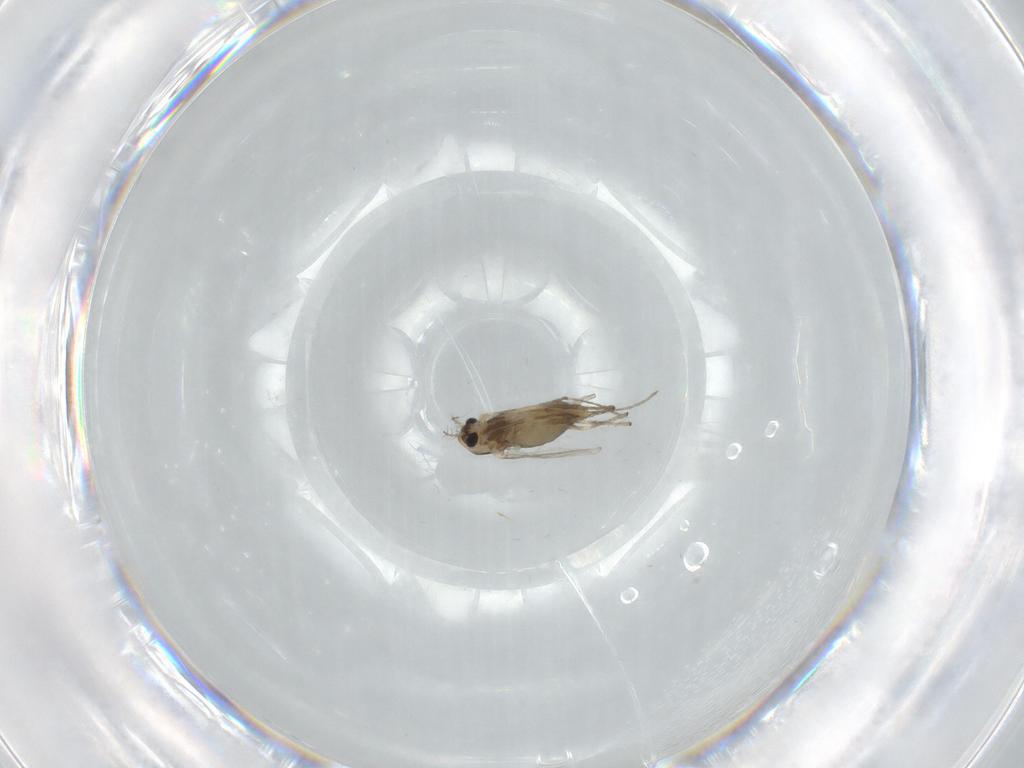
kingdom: Animalia
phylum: Arthropoda
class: Insecta
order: Diptera
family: Chironomidae
